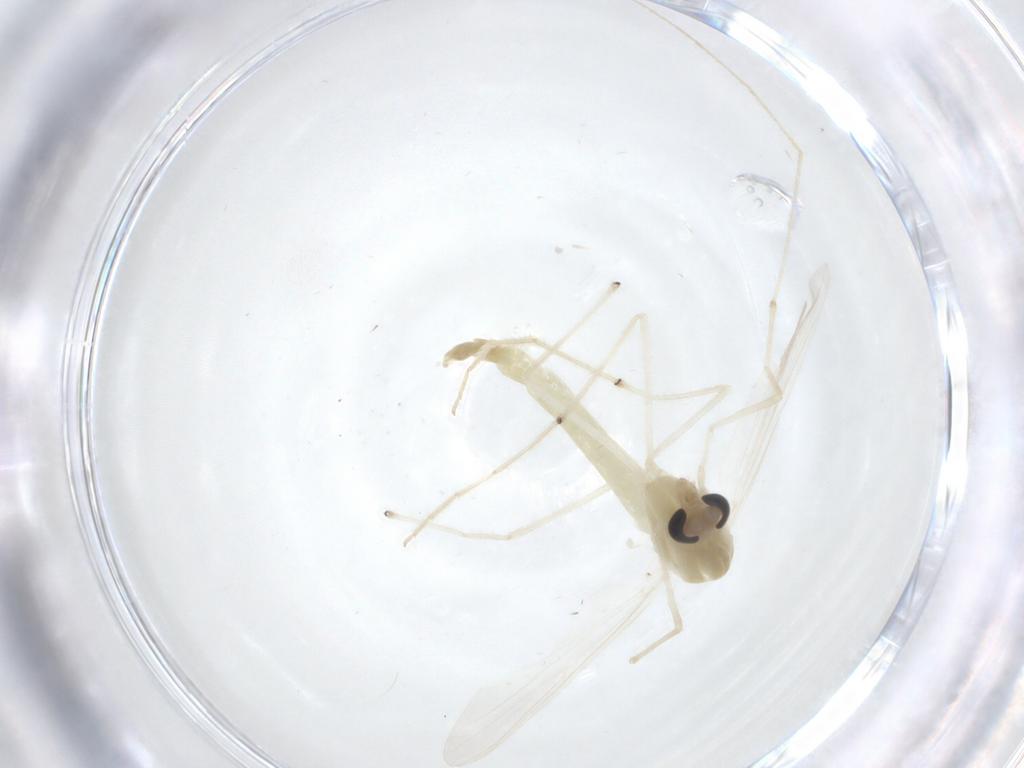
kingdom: Animalia
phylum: Arthropoda
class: Insecta
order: Diptera
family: Chironomidae
